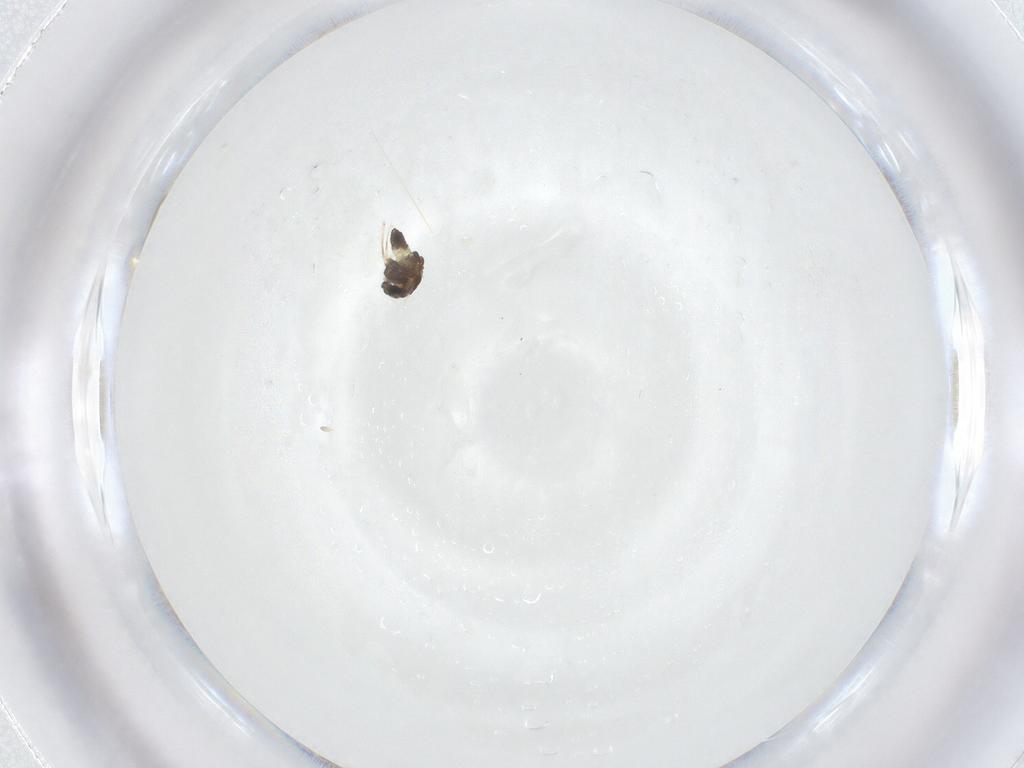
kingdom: Animalia
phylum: Arthropoda
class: Insecta
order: Diptera
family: Chironomidae
